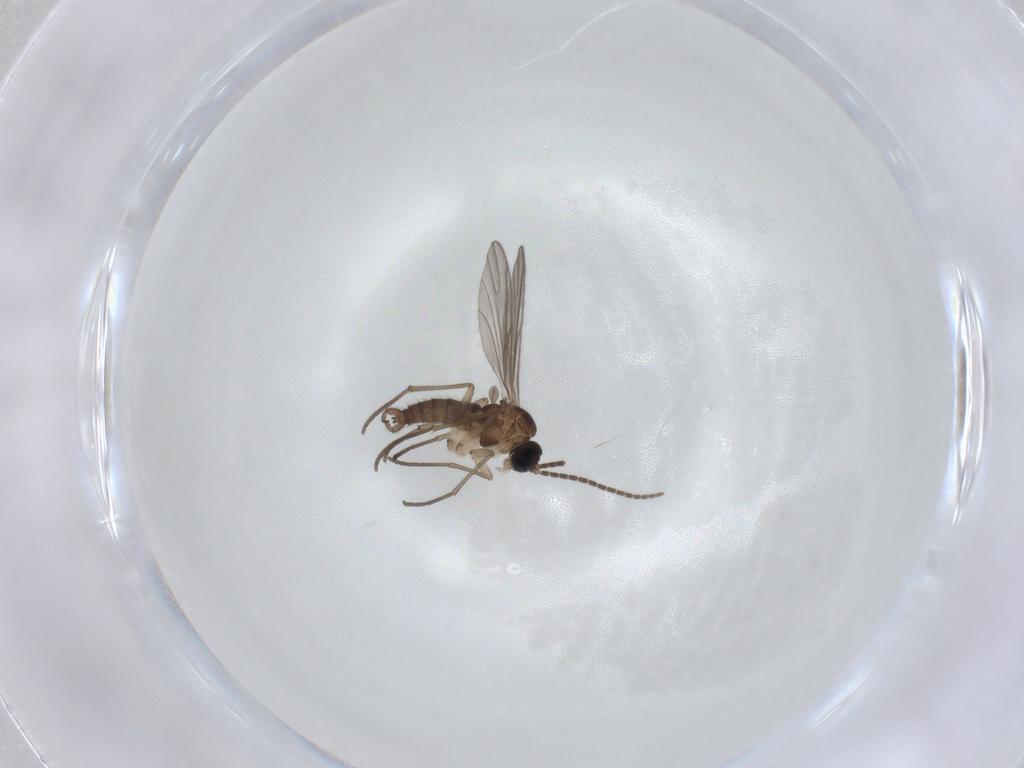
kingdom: Animalia
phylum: Arthropoda
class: Insecta
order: Diptera
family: Sciaridae
